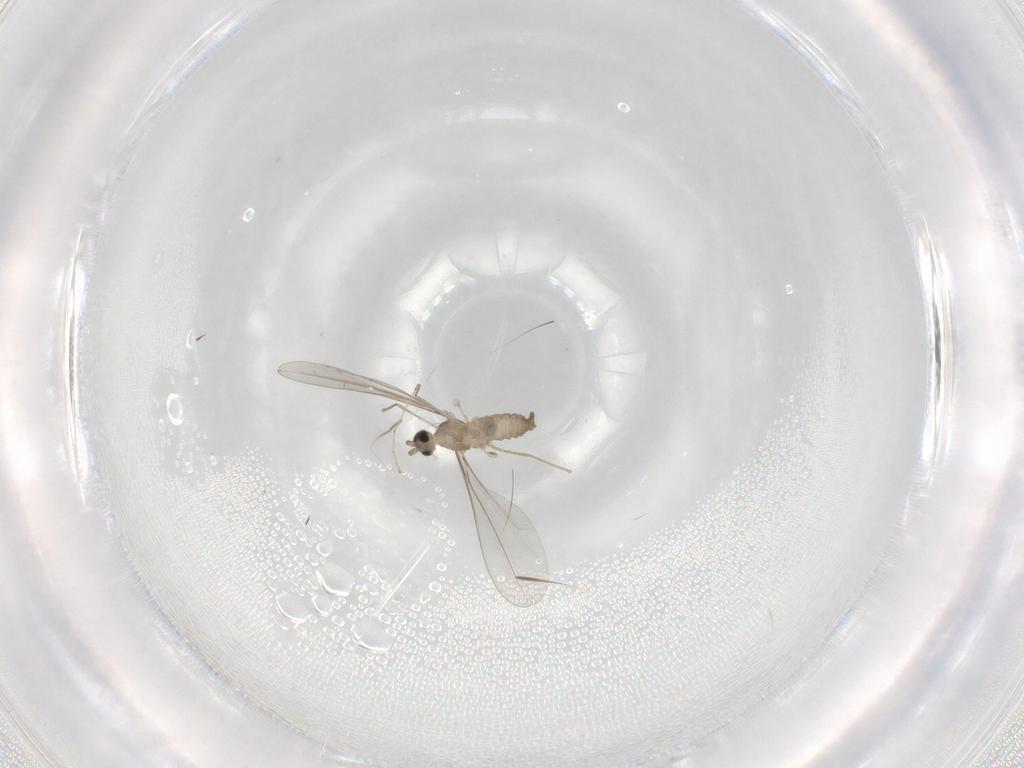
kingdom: Animalia
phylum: Arthropoda
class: Insecta
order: Diptera
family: Cecidomyiidae
